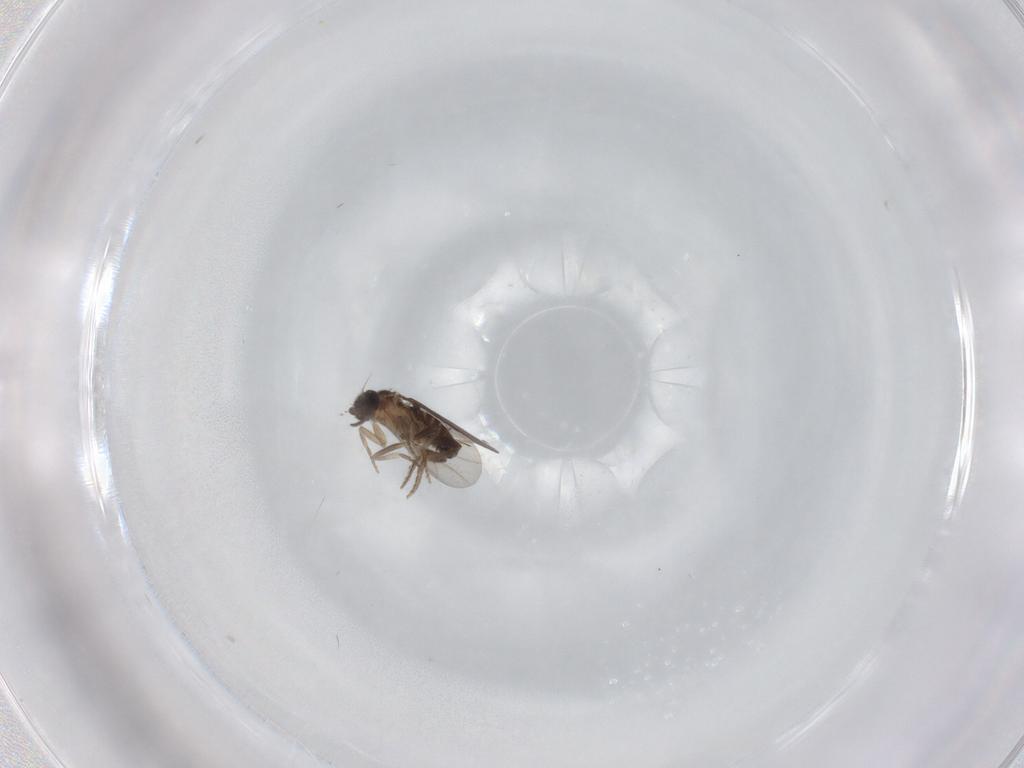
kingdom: Animalia
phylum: Arthropoda
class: Insecta
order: Diptera
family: Sciaridae
